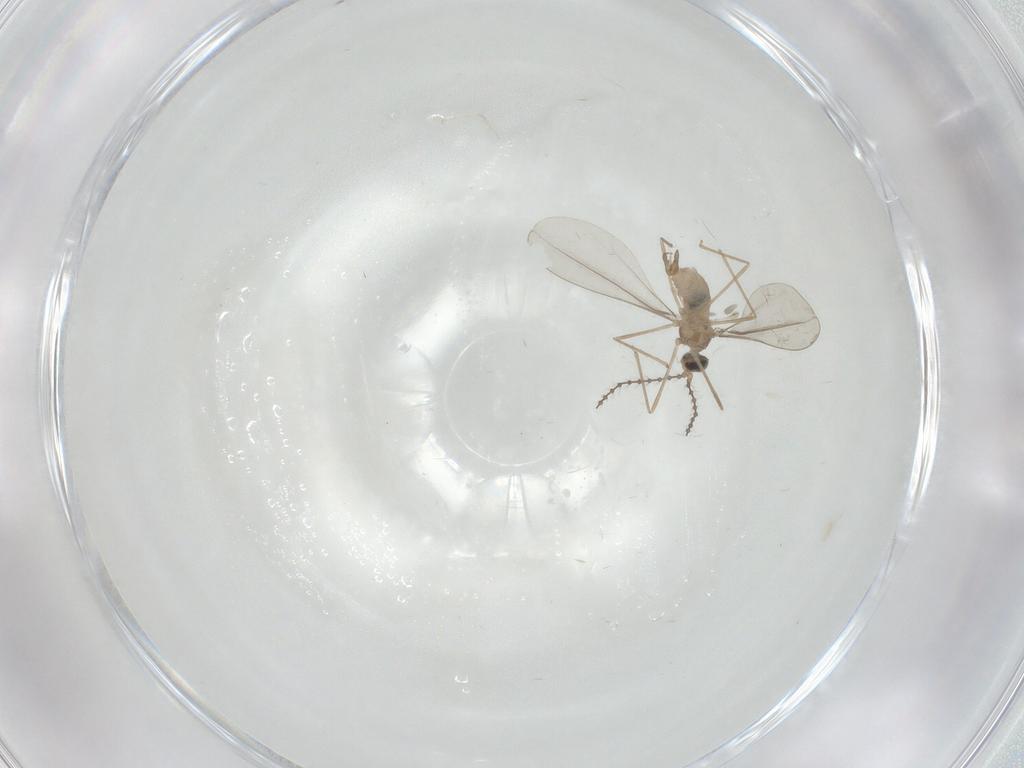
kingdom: Animalia
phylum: Arthropoda
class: Insecta
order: Diptera
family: Cecidomyiidae
